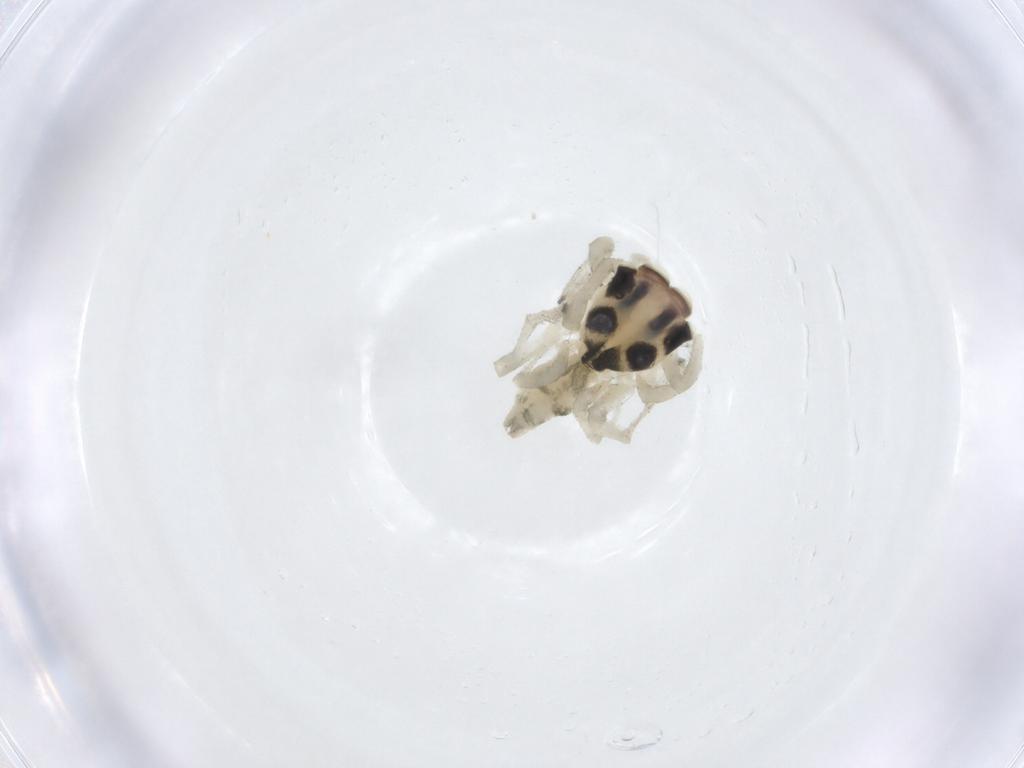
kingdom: Animalia
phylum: Arthropoda
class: Arachnida
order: Araneae
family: Salticidae
